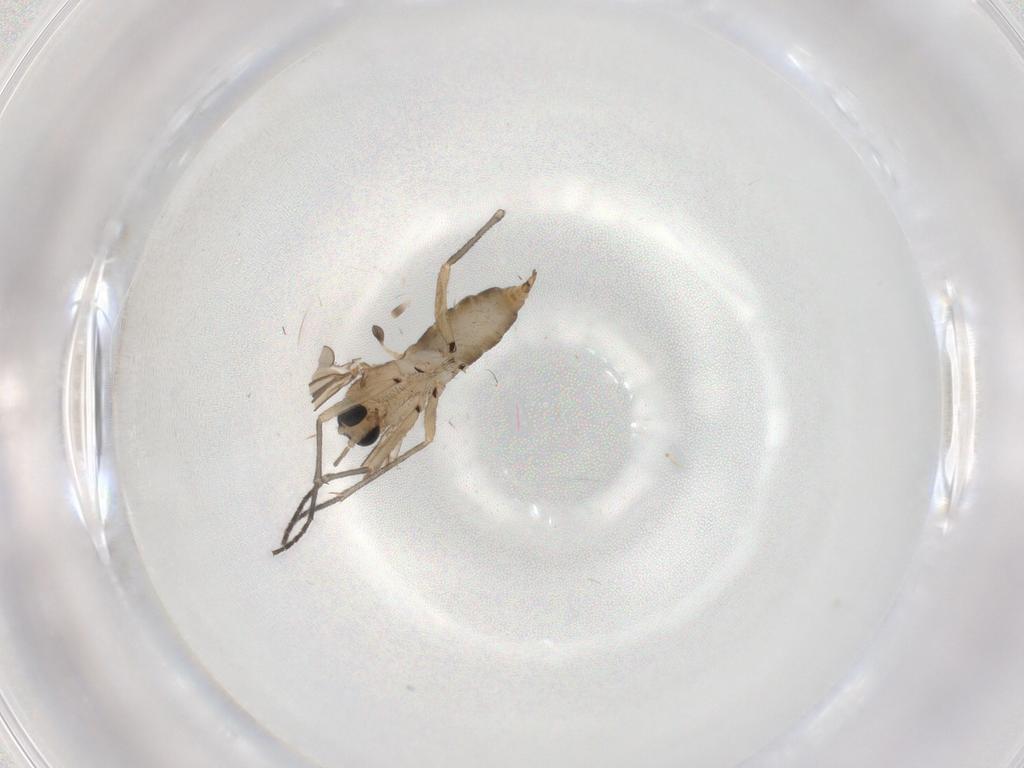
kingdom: Animalia
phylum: Arthropoda
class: Insecta
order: Diptera
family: Sciaridae
